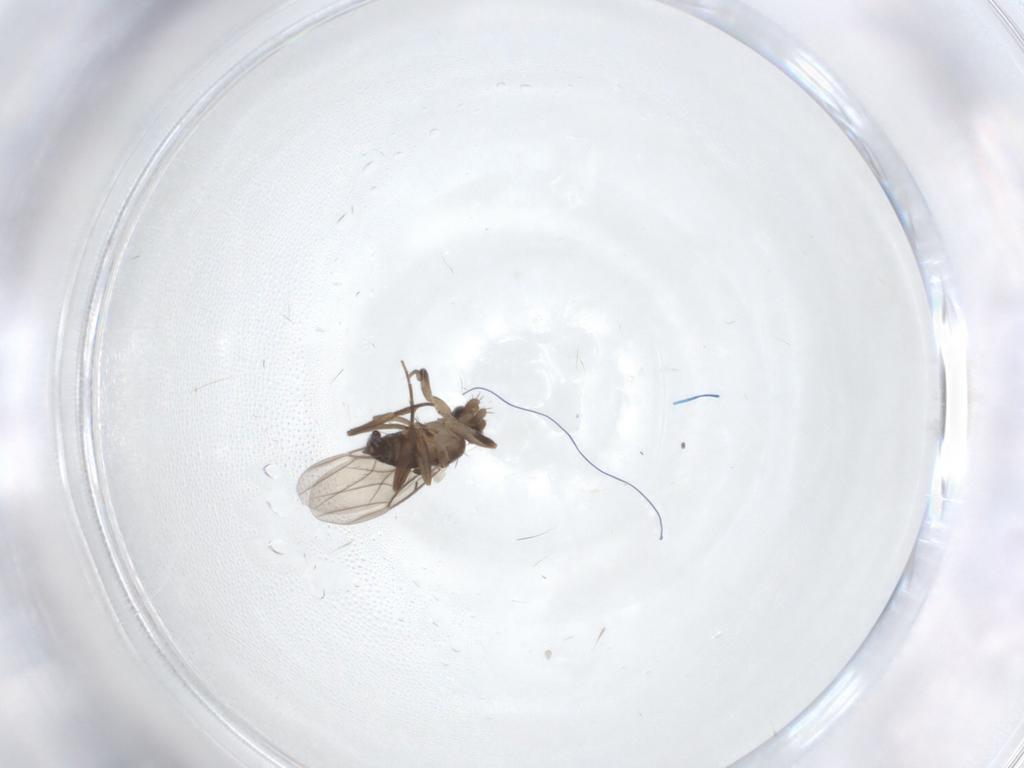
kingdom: Animalia
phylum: Arthropoda
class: Insecta
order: Diptera
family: Phoridae
